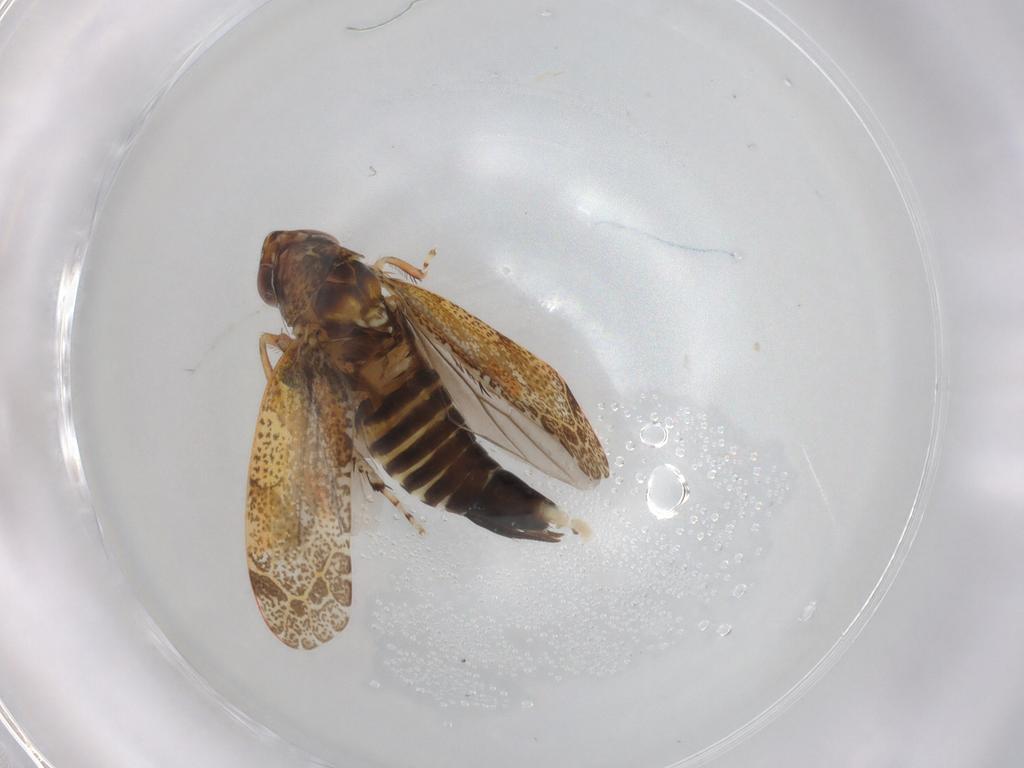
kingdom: Animalia
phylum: Arthropoda
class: Insecta
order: Hemiptera
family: Cicadellidae
